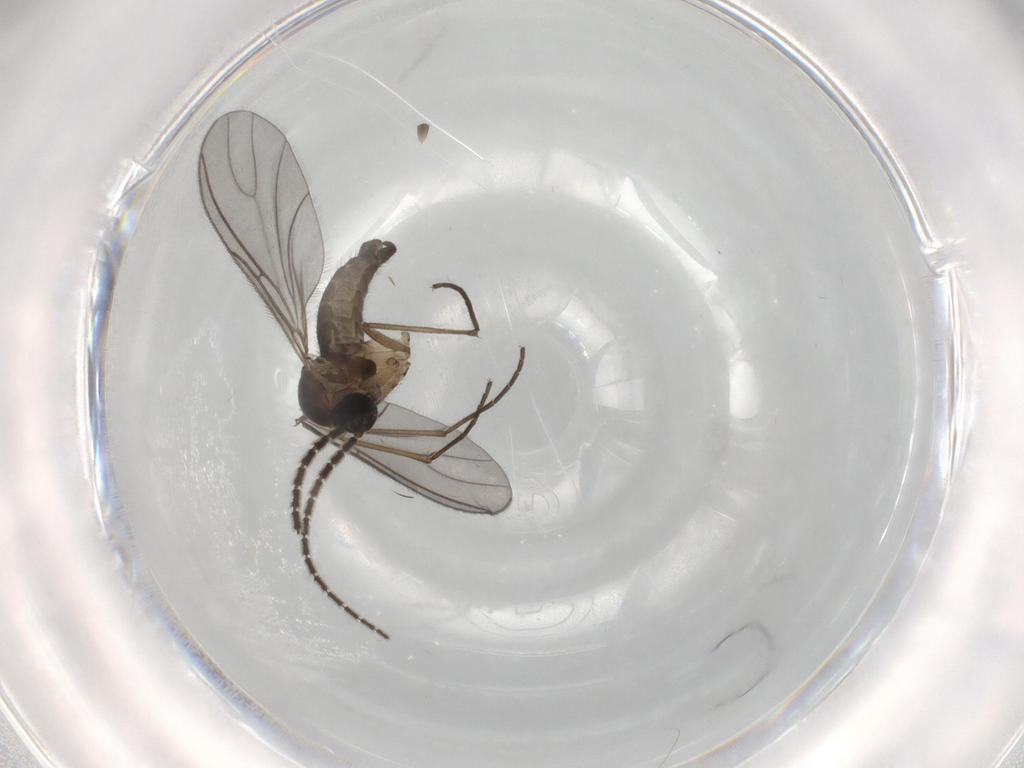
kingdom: Animalia
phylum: Arthropoda
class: Insecta
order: Diptera
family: Sciaridae
